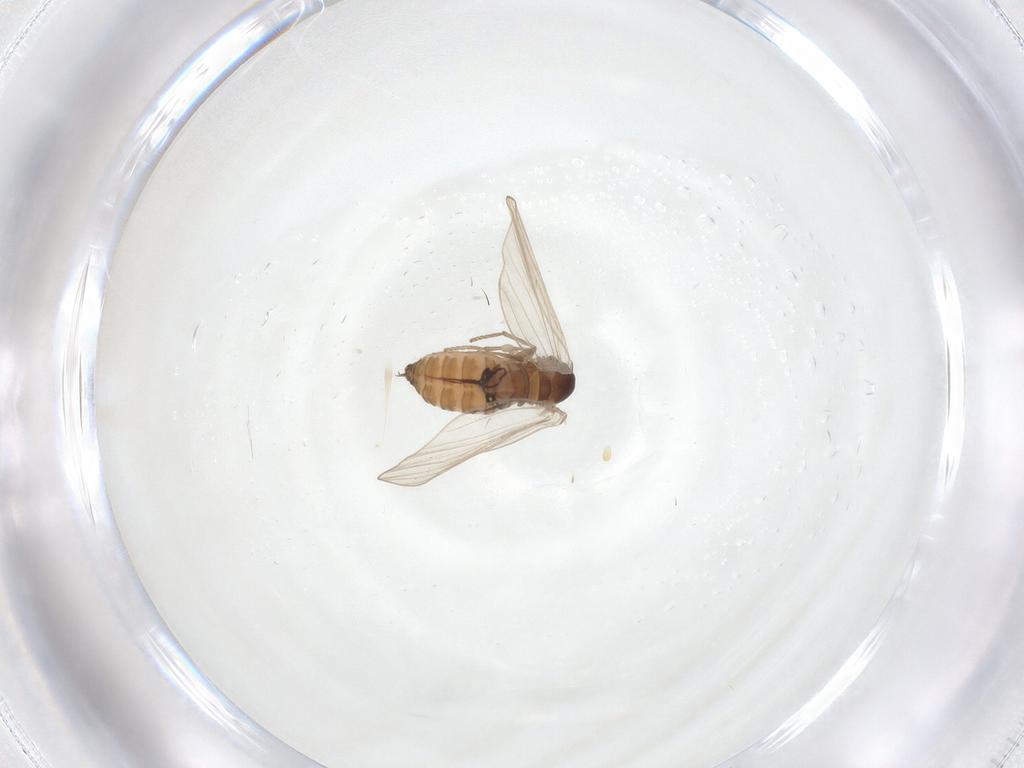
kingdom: Animalia
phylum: Arthropoda
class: Insecta
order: Diptera
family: Psychodidae
